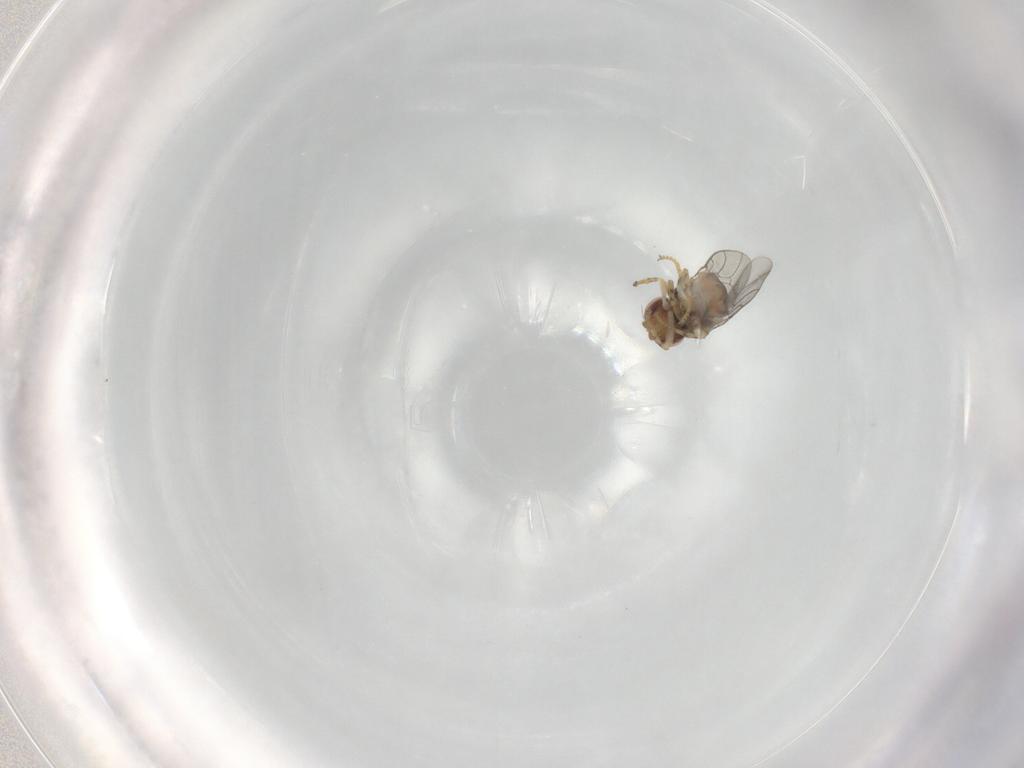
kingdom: Animalia
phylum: Arthropoda
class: Insecta
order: Diptera
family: Chloropidae
